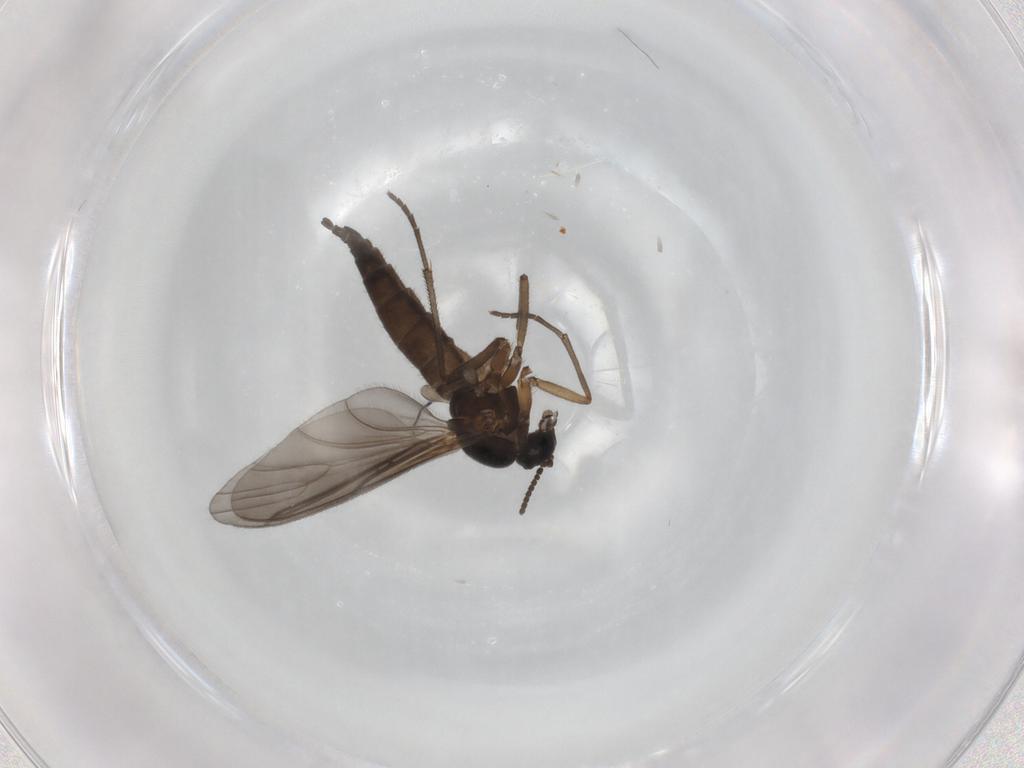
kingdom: Animalia
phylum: Arthropoda
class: Insecta
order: Diptera
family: Sciaridae
